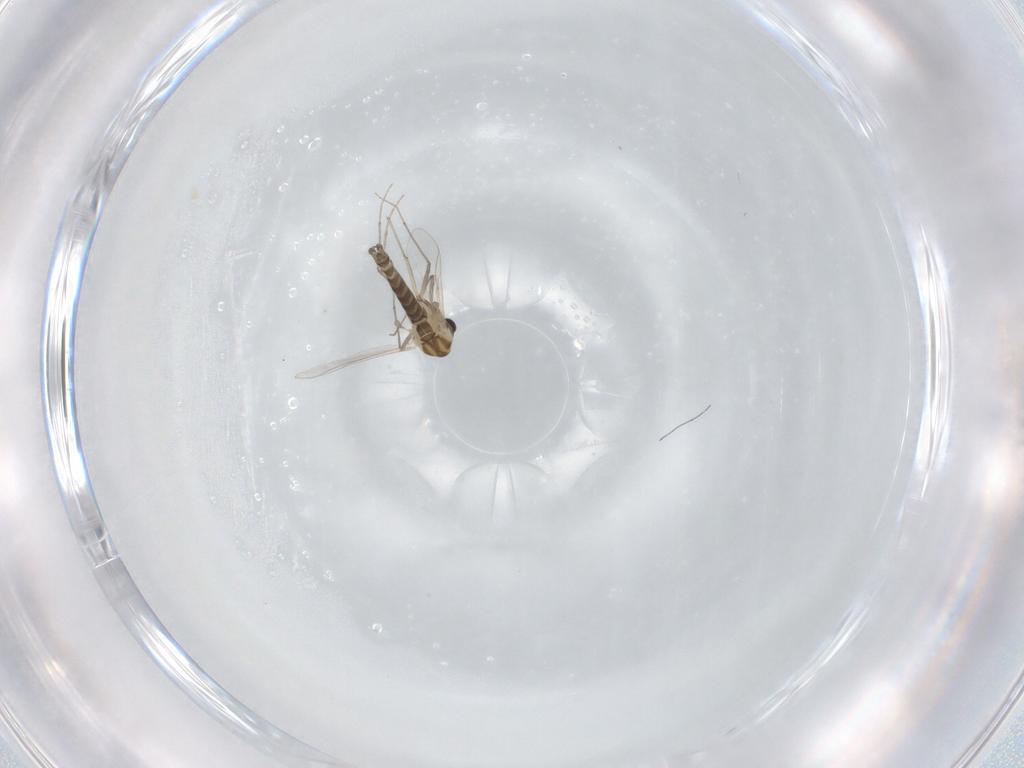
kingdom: Animalia
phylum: Arthropoda
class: Insecta
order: Diptera
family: Chironomidae
